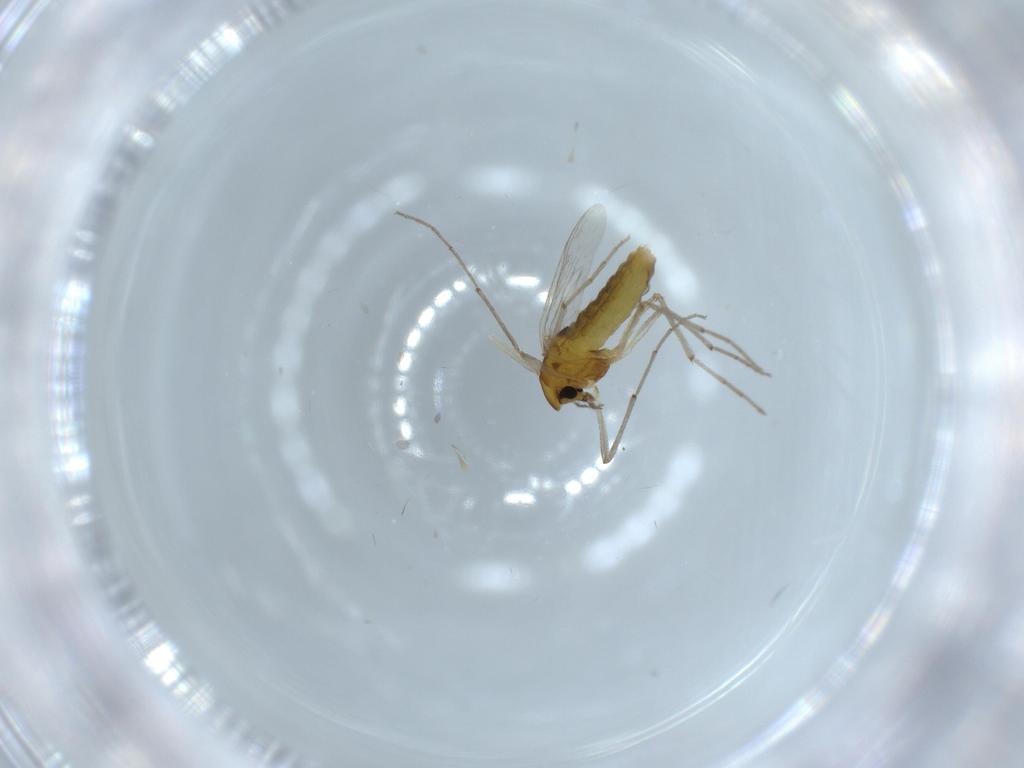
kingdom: Animalia
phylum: Arthropoda
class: Insecta
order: Diptera
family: Chironomidae
